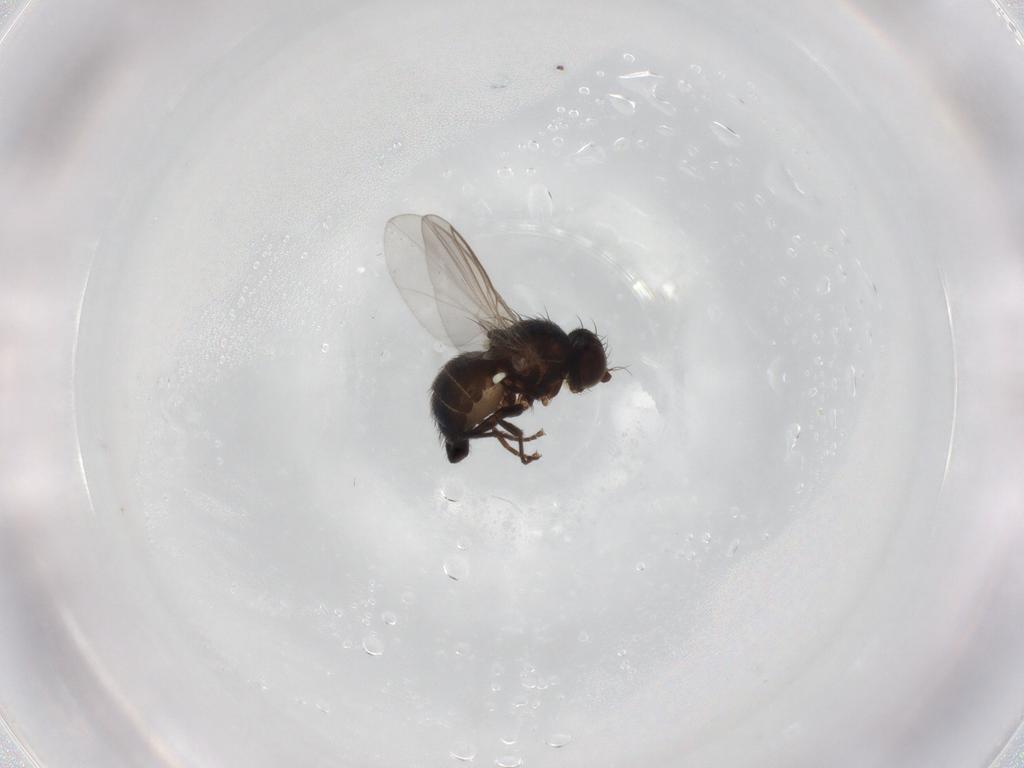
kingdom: Animalia
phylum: Arthropoda
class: Insecta
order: Diptera
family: Agromyzidae
